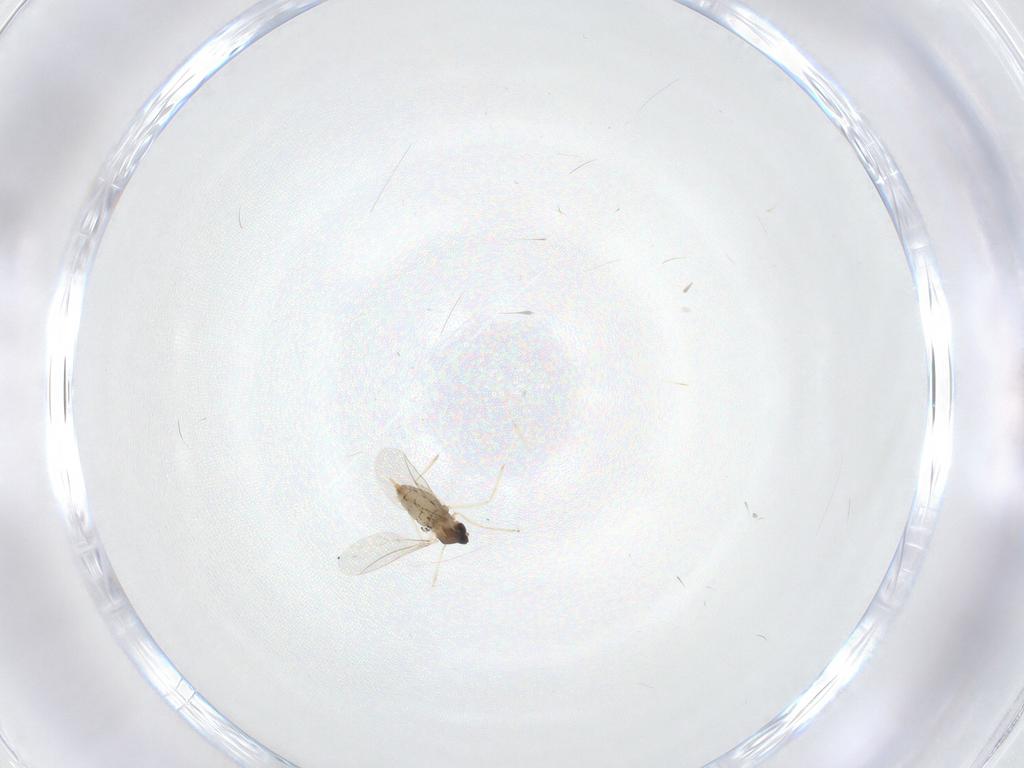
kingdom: Animalia
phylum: Arthropoda
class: Insecta
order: Diptera
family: Cecidomyiidae
